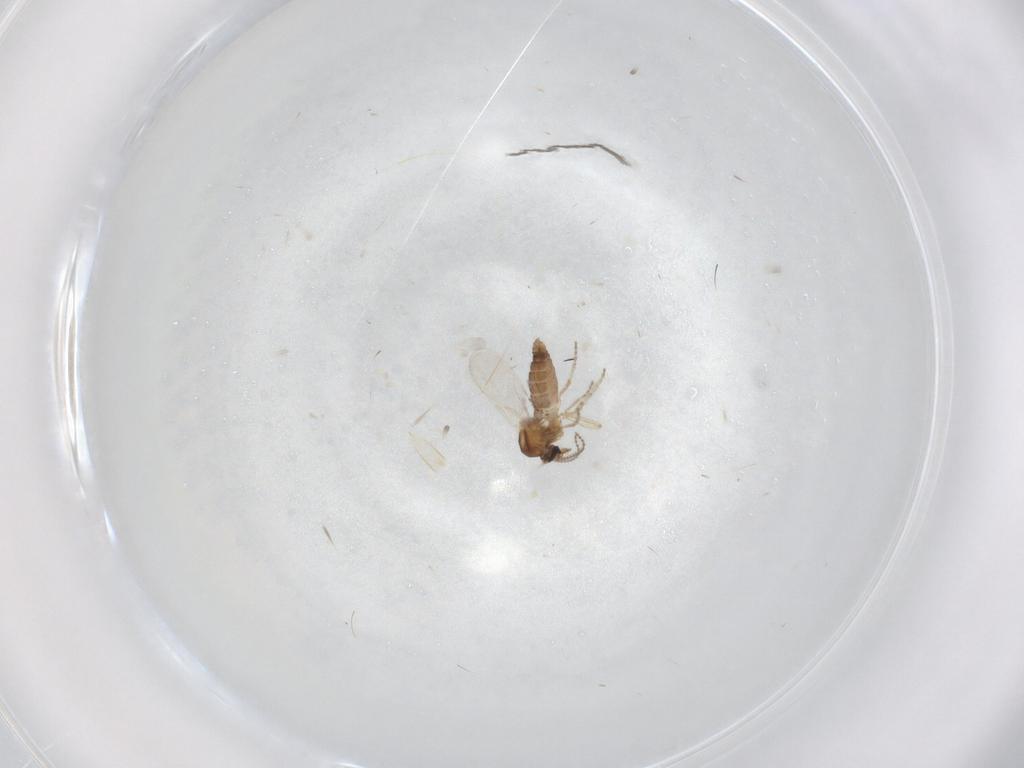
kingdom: Animalia
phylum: Arthropoda
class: Insecta
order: Diptera
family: Ceratopogonidae
